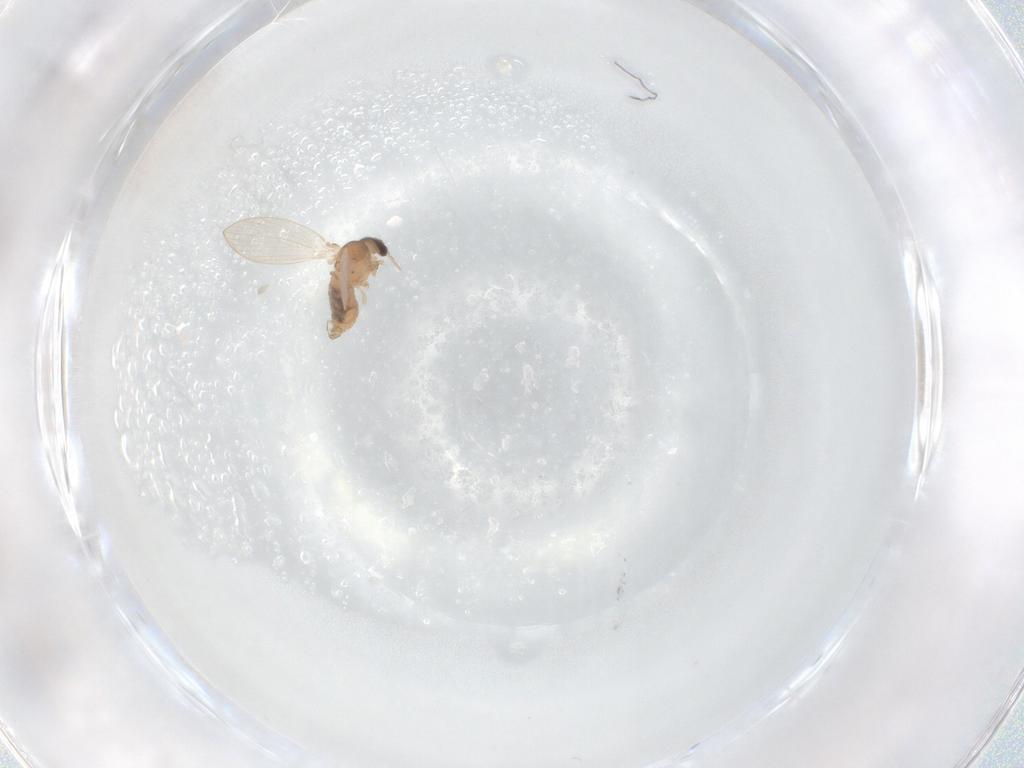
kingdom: Animalia
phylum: Arthropoda
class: Insecta
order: Diptera
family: Psychodidae
